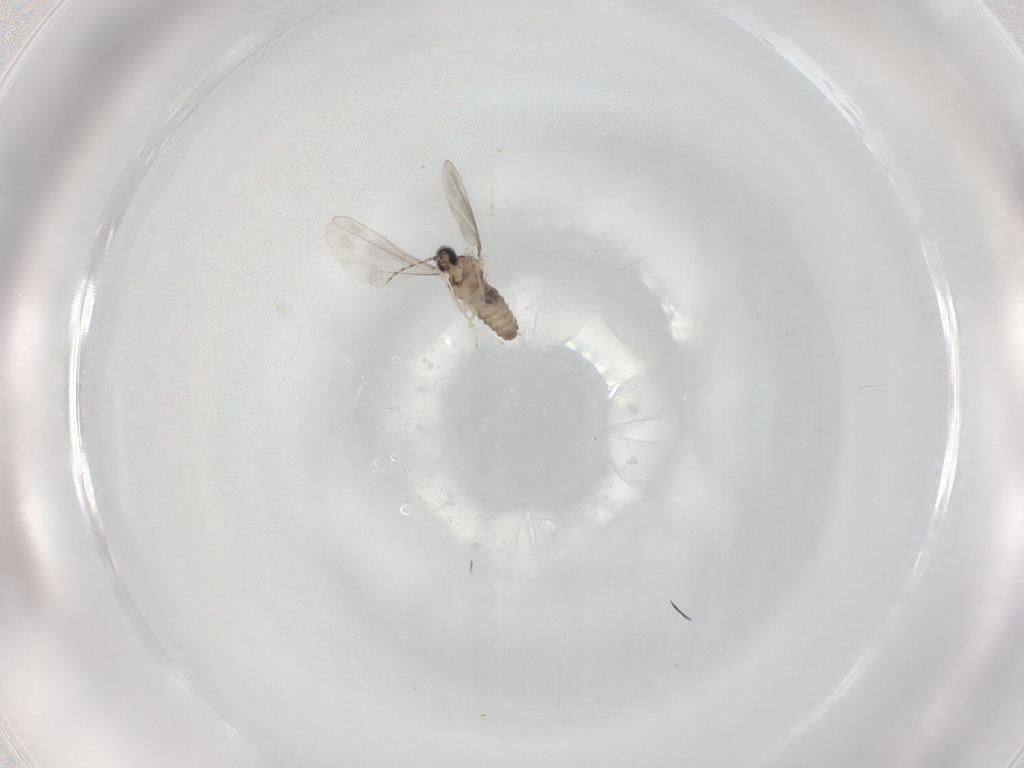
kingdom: Animalia
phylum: Arthropoda
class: Insecta
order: Diptera
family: Cecidomyiidae
